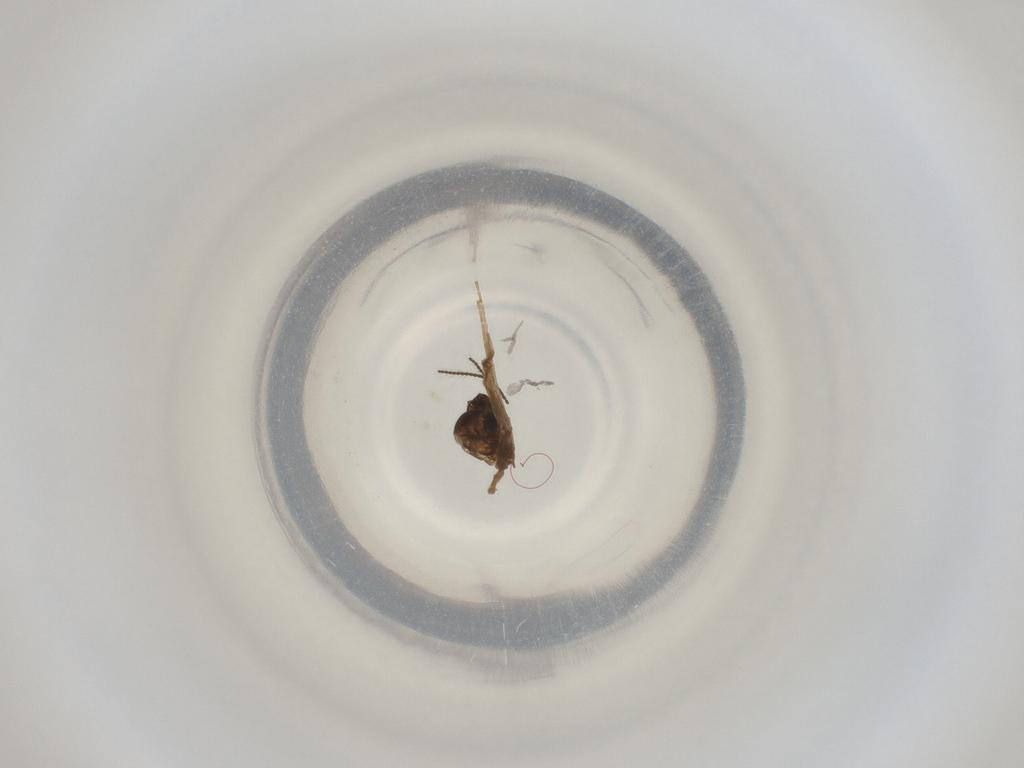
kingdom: Animalia
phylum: Arthropoda
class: Insecta
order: Diptera
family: Cecidomyiidae
